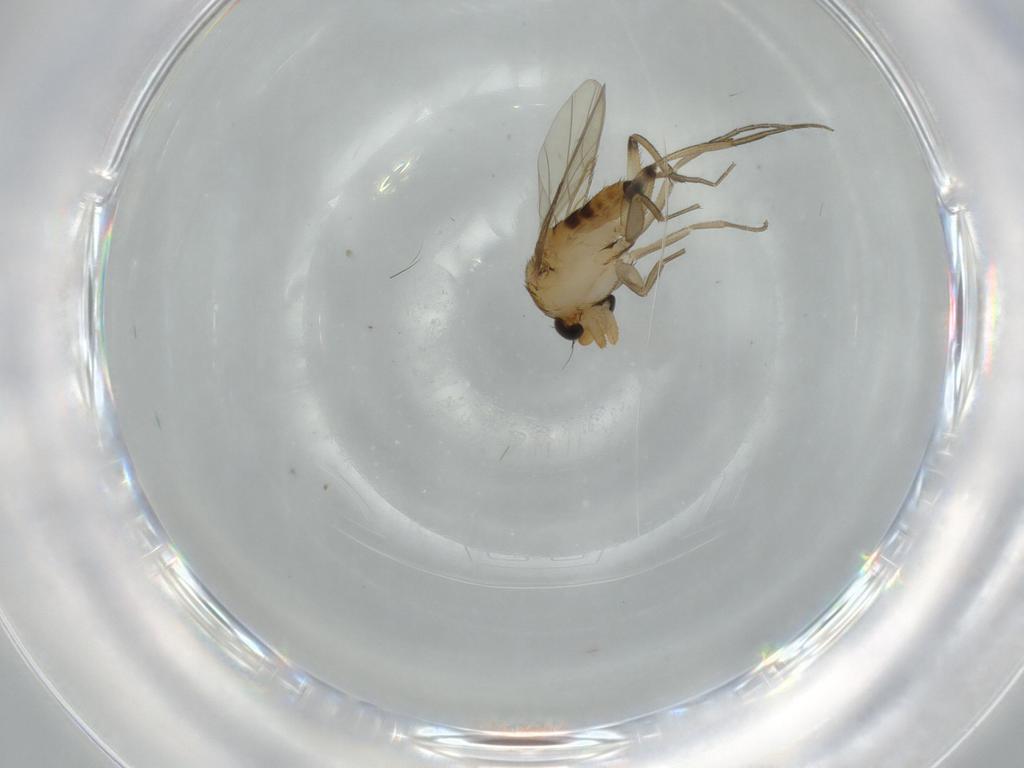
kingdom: Animalia
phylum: Arthropoda
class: Insecta
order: Diptera
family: Phoridae
